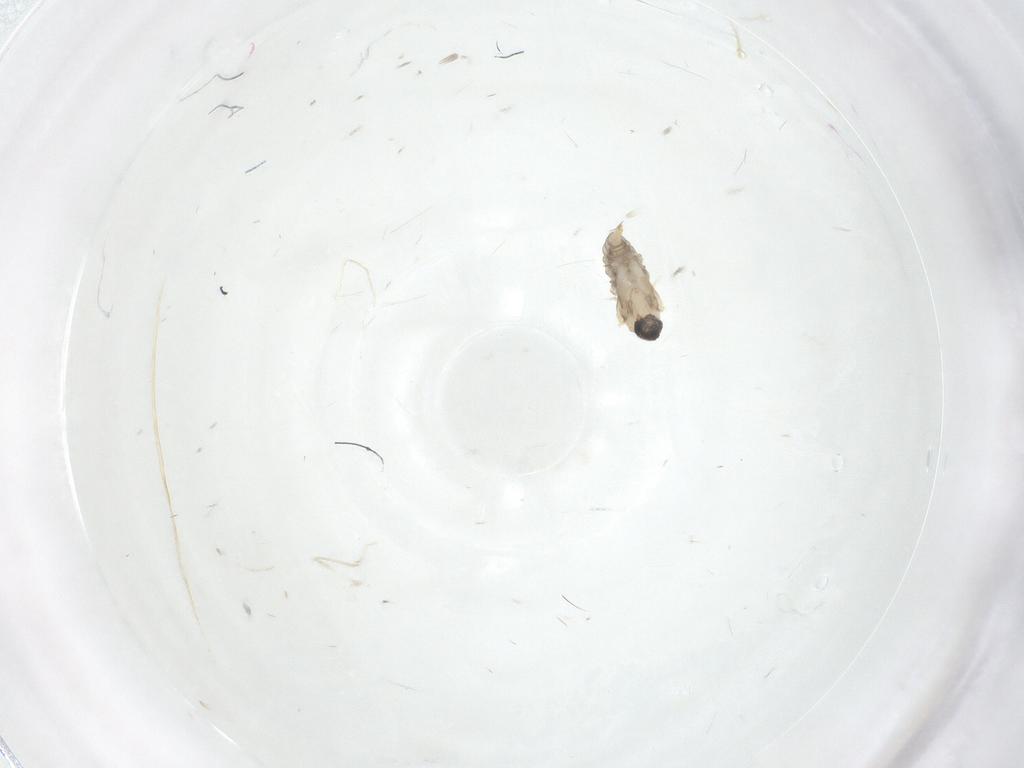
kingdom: Animalia
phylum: Arthropoda
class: Insecta
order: Diptera
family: Cecidomyiidae
